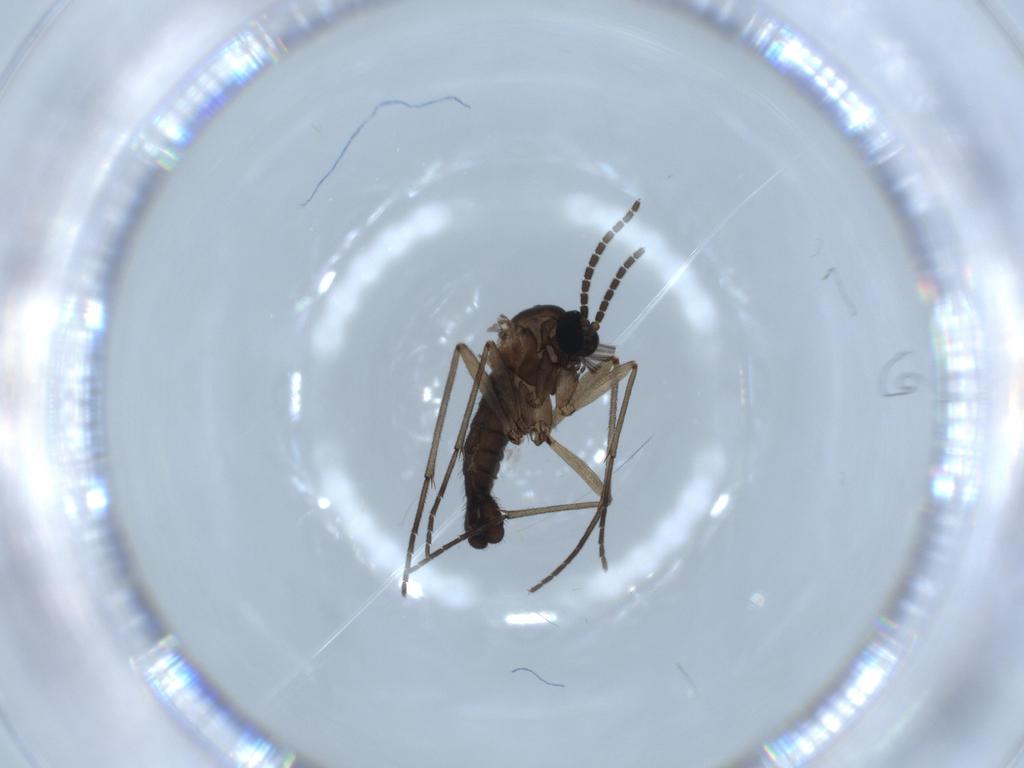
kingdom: Animalia
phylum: Arthropoda
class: Insecta
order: Diptera
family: Sciaridae
